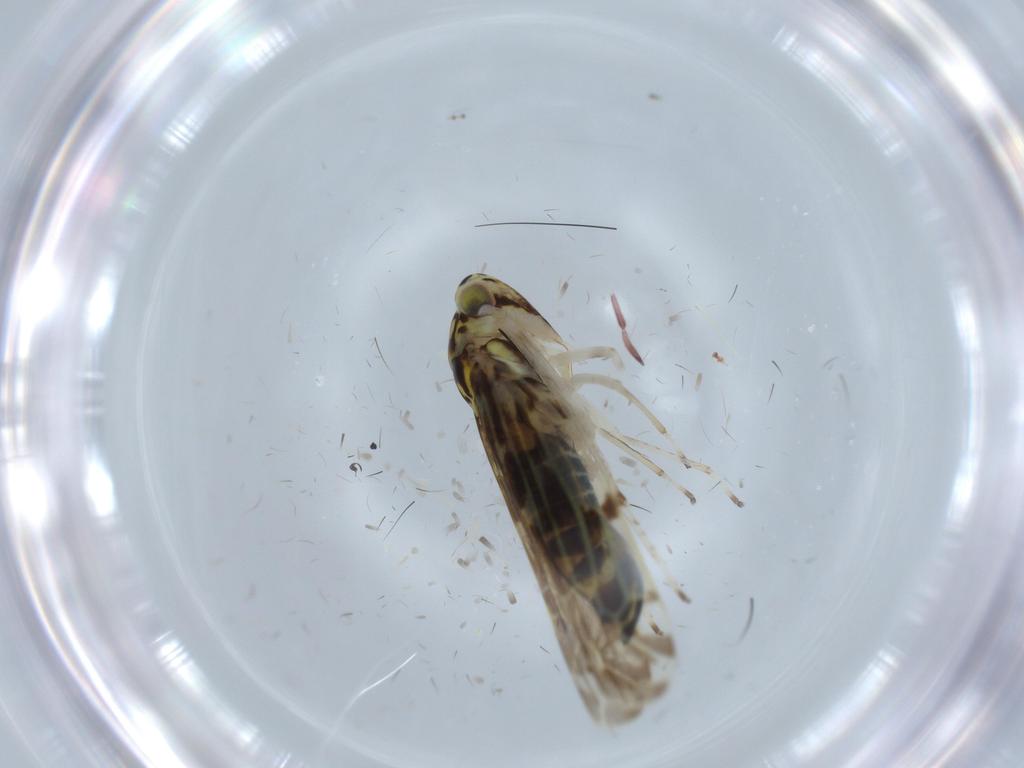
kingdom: Animalia
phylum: Arthropoda
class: Insecta
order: Hemiptera
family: Cicadellidae
